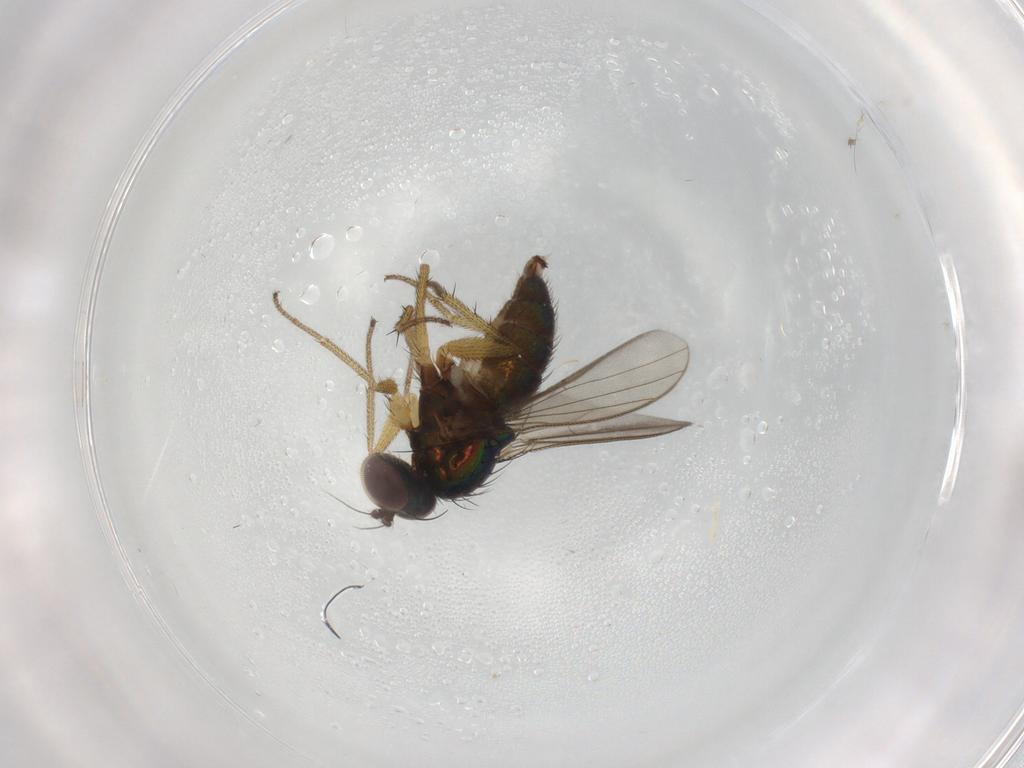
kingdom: Animalia
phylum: Arthropoda
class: Insecta
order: Diptera
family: Dolichopodidae
